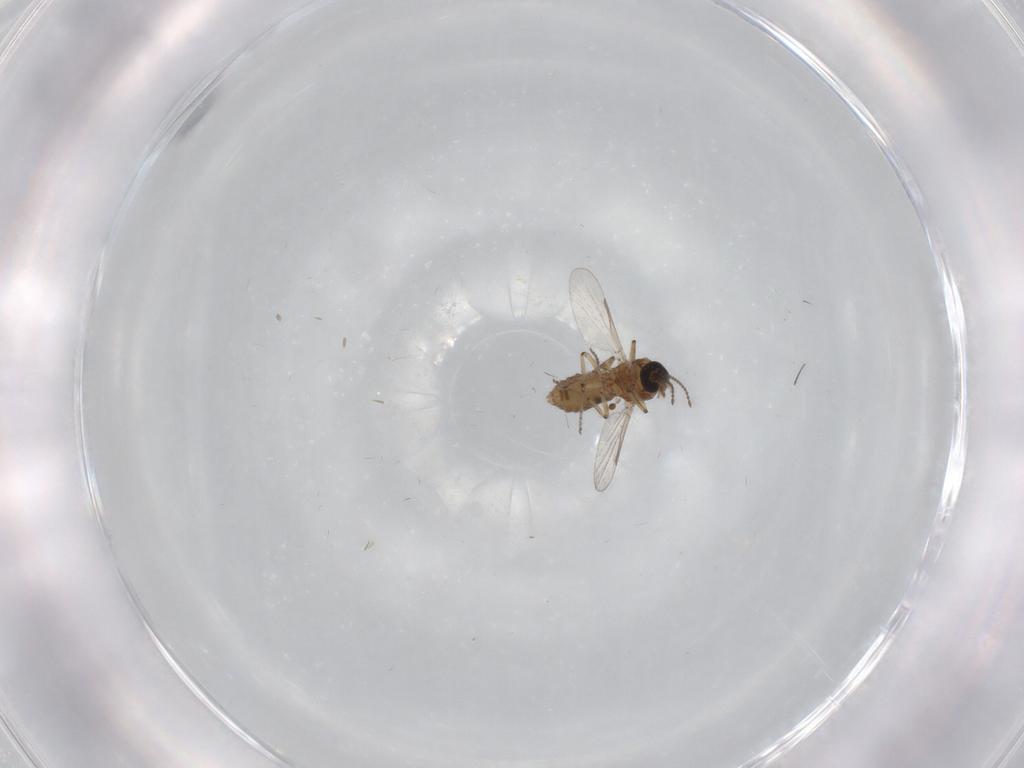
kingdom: Animalia
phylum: Arthropoda
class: Insecta
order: Diptera
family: Ceratopogonidae
